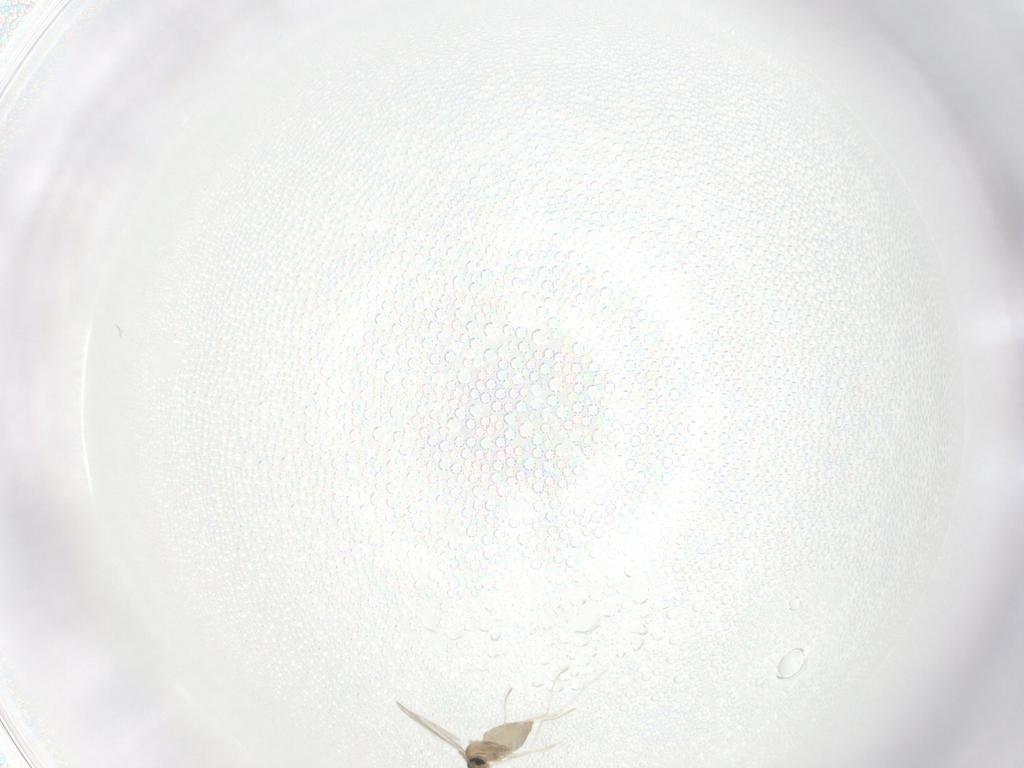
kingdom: Animalia
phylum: Arthropoda
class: Insecta
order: Diptera
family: Cecidomyiidae
